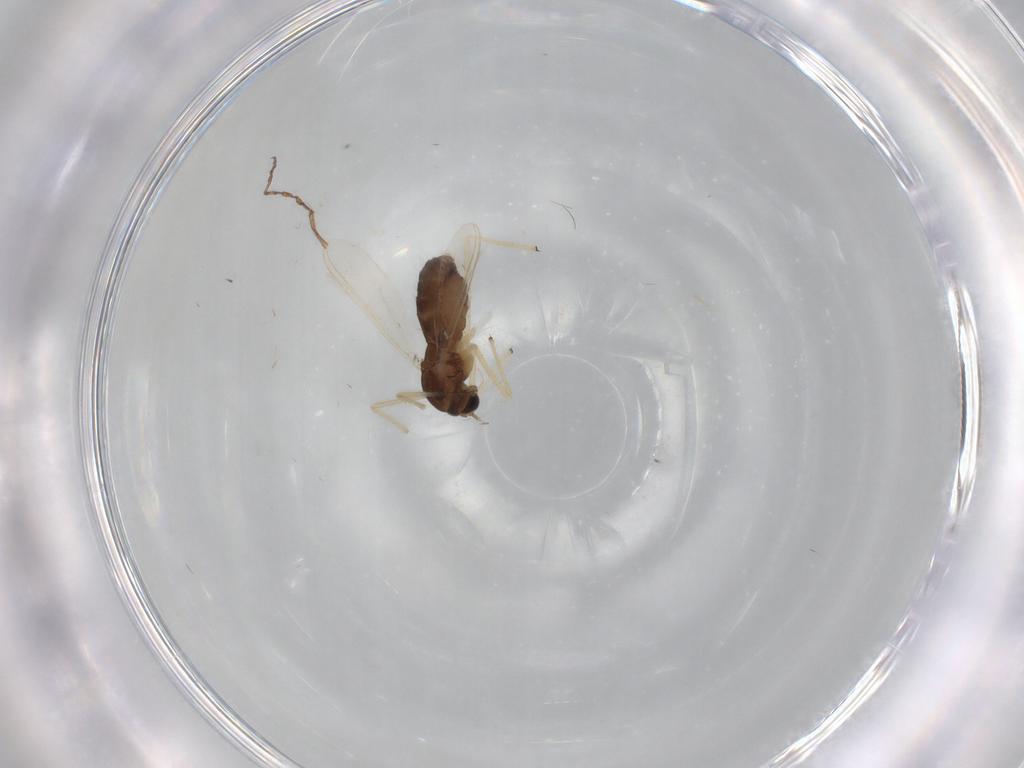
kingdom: Animalia
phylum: Arthropoda
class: Insecta
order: Diptera
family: Chironomidae
